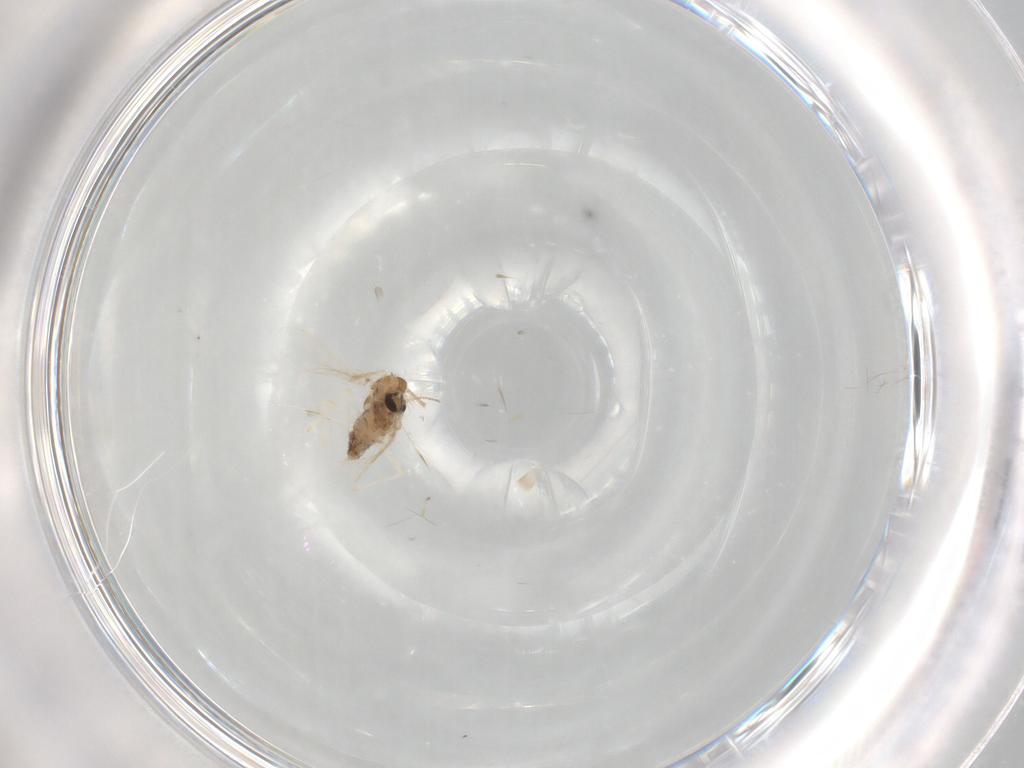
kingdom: Animalia
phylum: Arthropoda
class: Insecta
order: Diptera
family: Chironomidae
